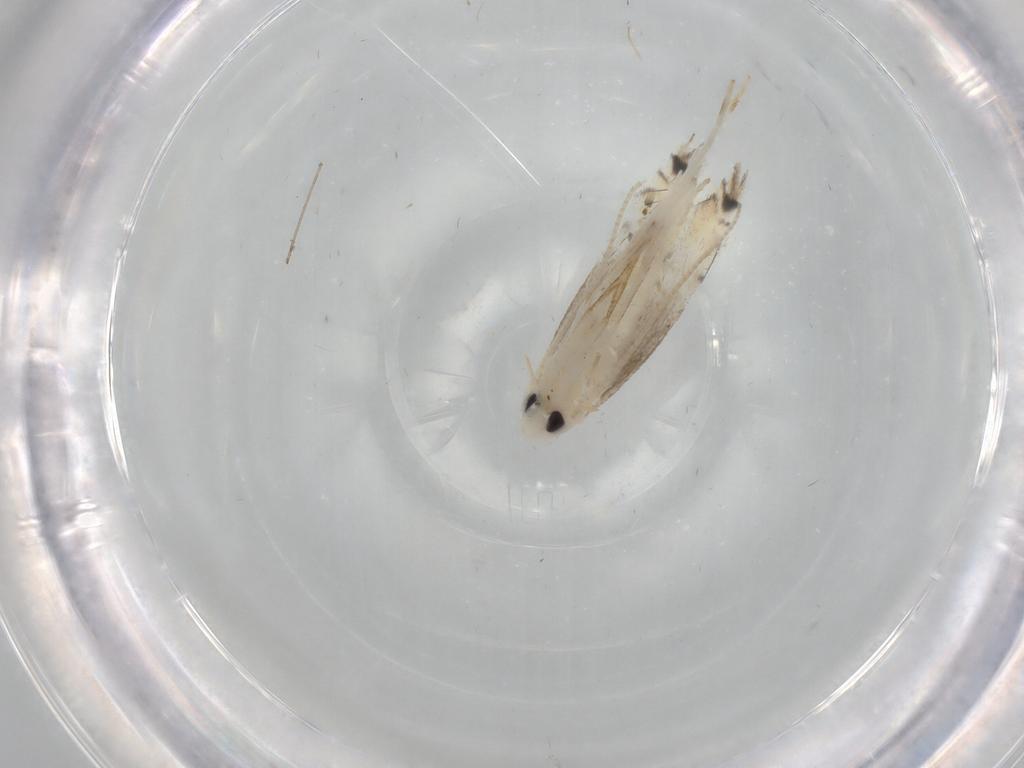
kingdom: Animalia
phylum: Arthropoda
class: Insecta
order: Lepidoptera
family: Gracillariidae
